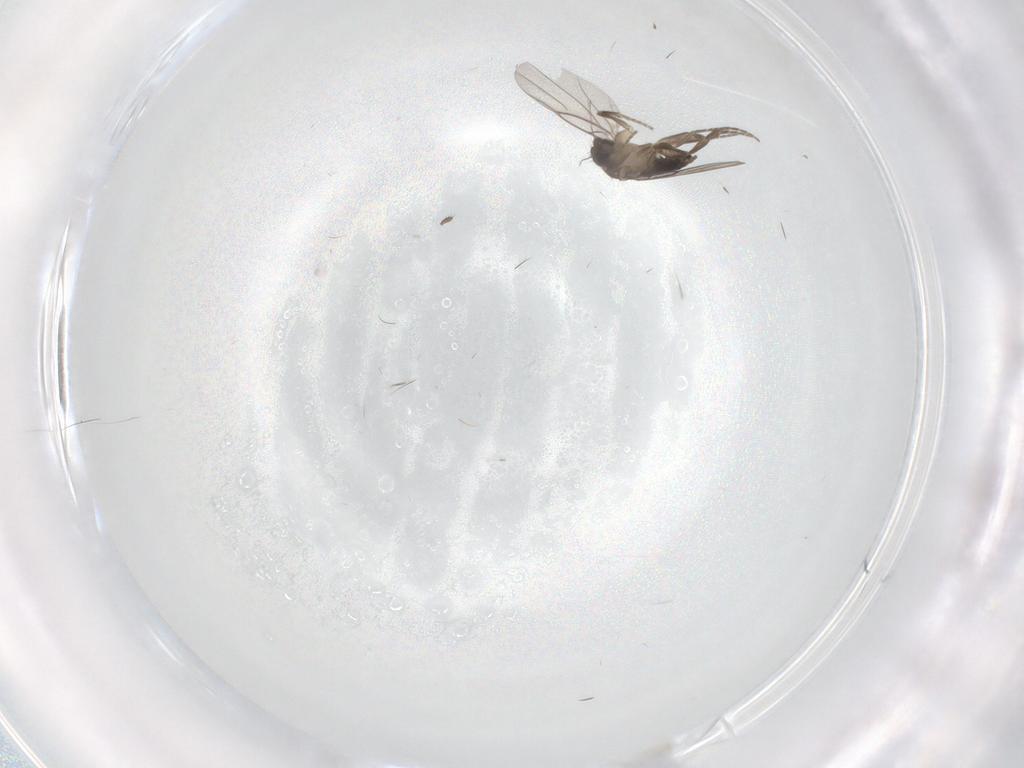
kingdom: Animalia
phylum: Arthropoda
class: Insecta
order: Diptera
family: Phoridae
